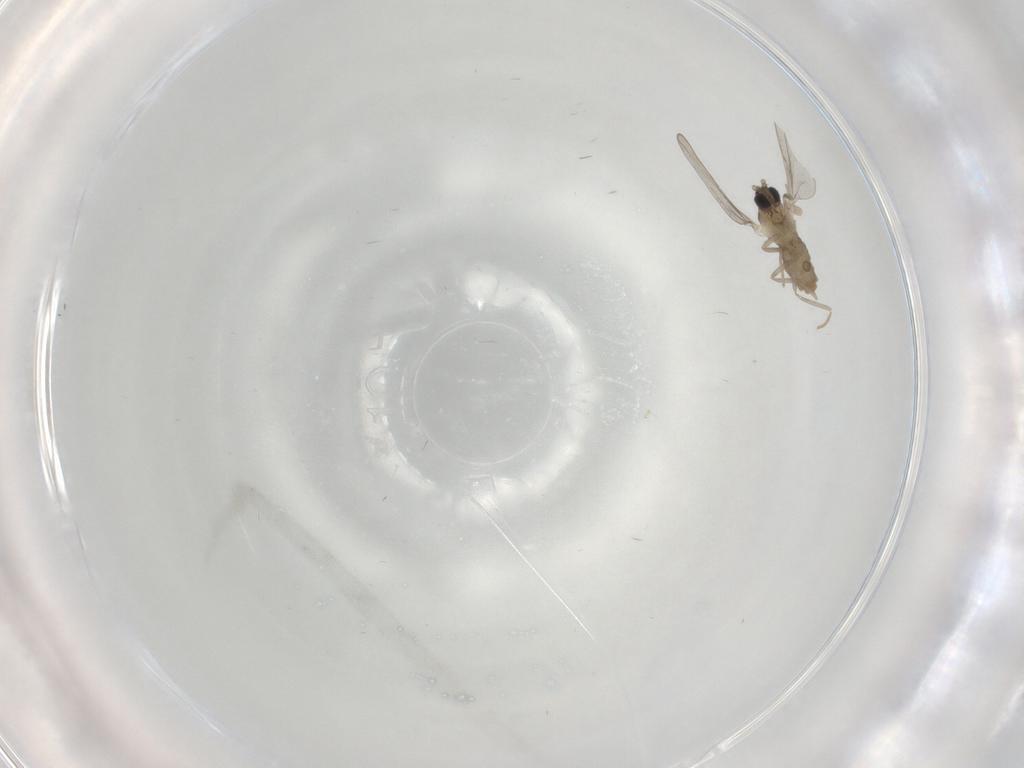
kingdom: Animalia
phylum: Arthropoda
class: Insecta
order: Diptera
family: Cecidomyiidae
